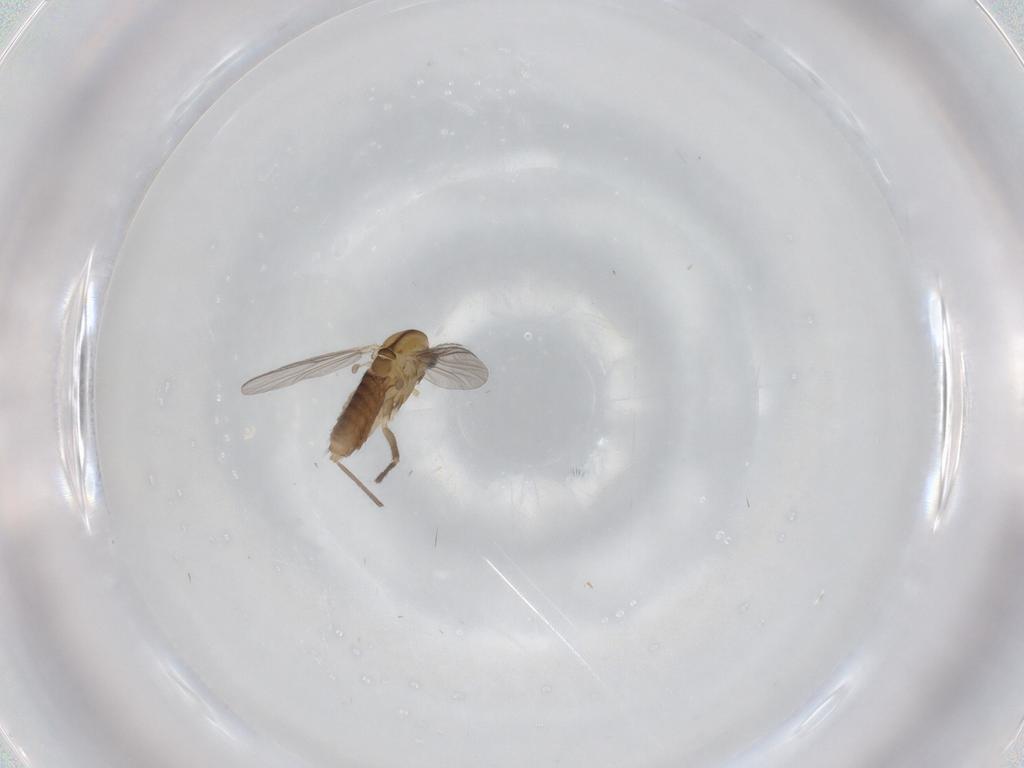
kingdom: Animalia
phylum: Arthropoda
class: Insecta
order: Diptera
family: Chironomidae
